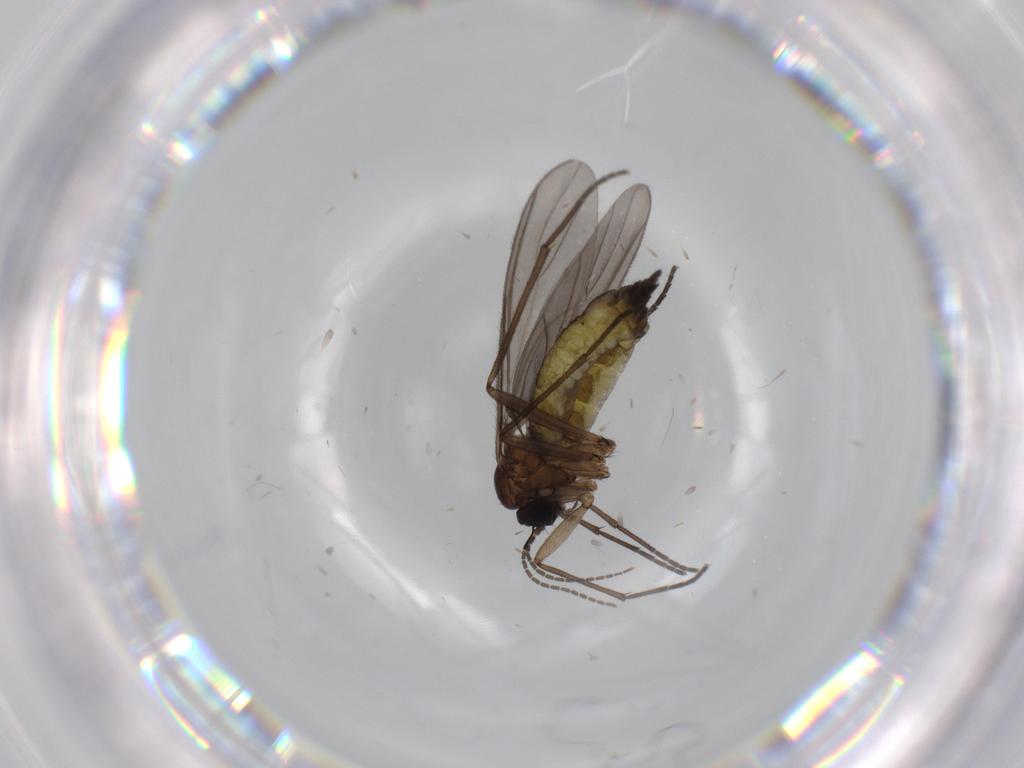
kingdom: Animalia
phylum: Arthropoda
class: Insecta
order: Diptera
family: Sciaridae
